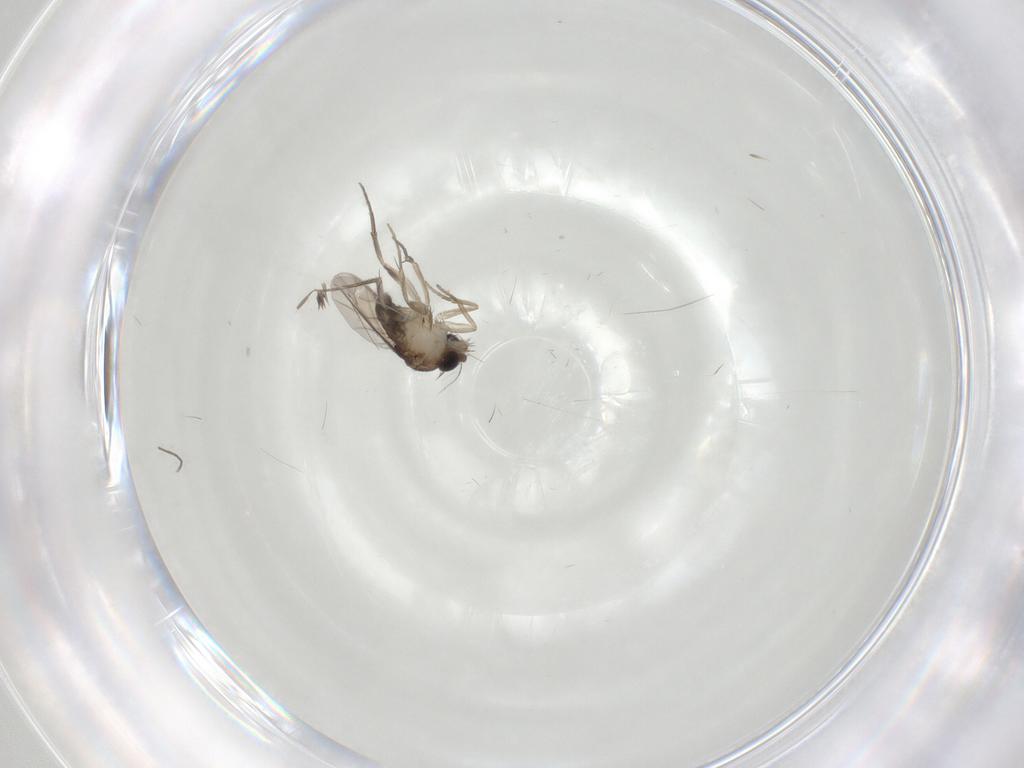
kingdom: Animalia
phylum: Arthropoda
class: Insecta
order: Diptera
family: Phoridae
